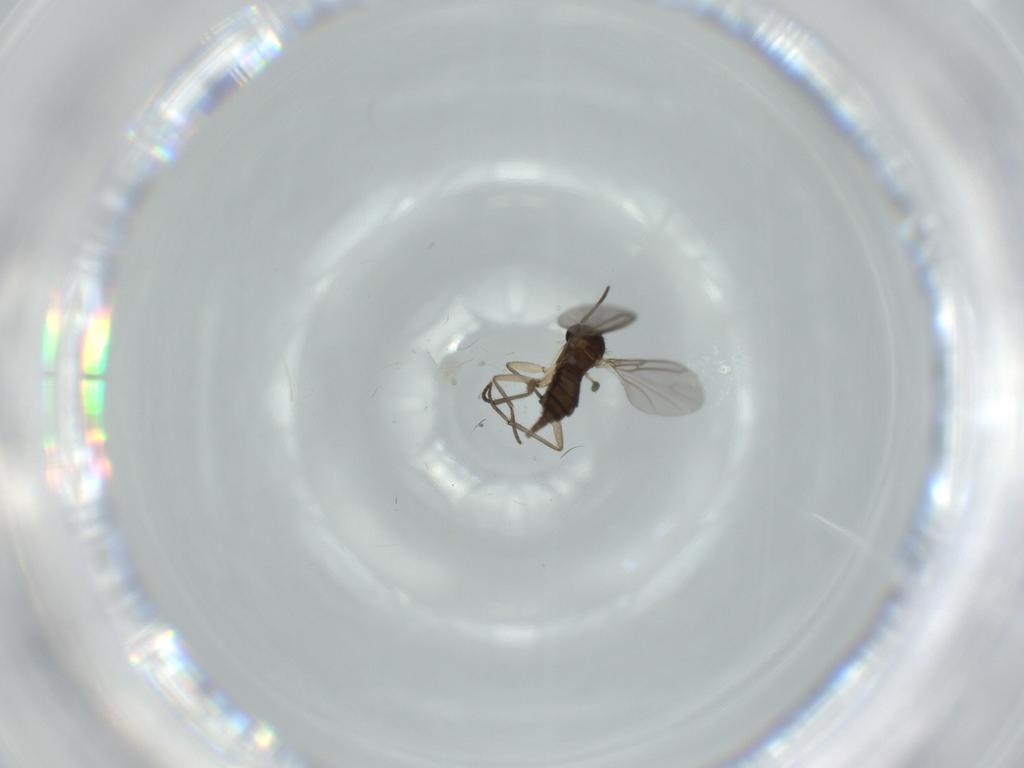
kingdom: Animalia
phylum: Arthropoda
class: Insecta
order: Diptera
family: Sciaridae
